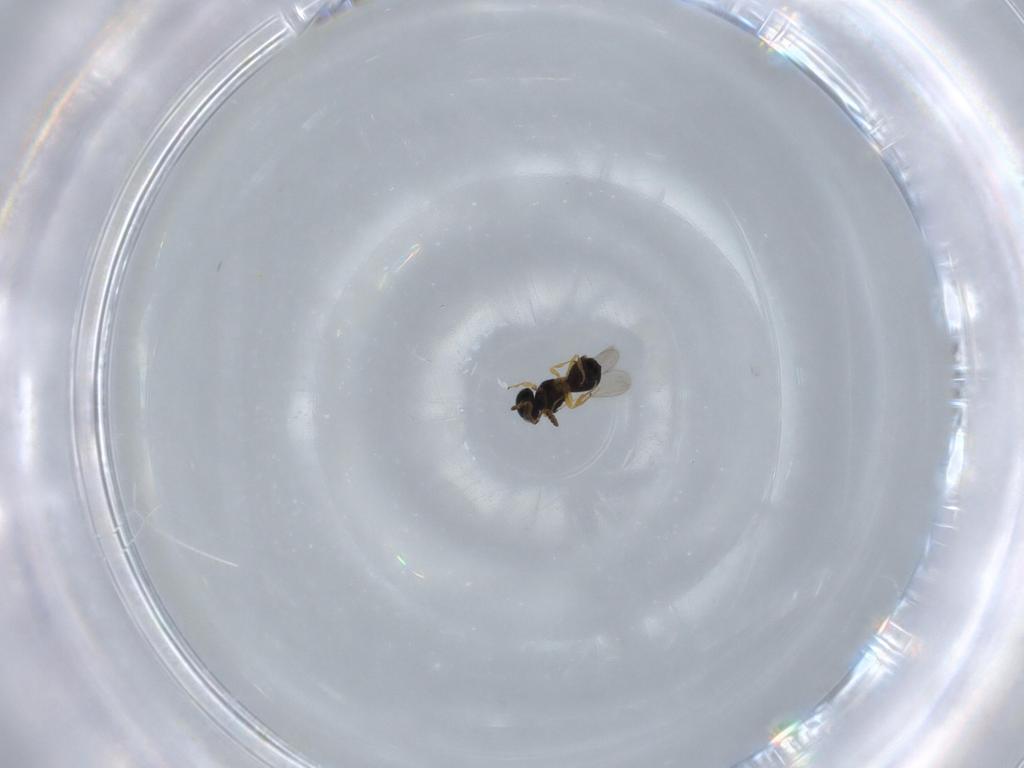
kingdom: Animalia
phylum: Arthropoda
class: Insecta
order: Hymenoptera
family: Scelionidae
